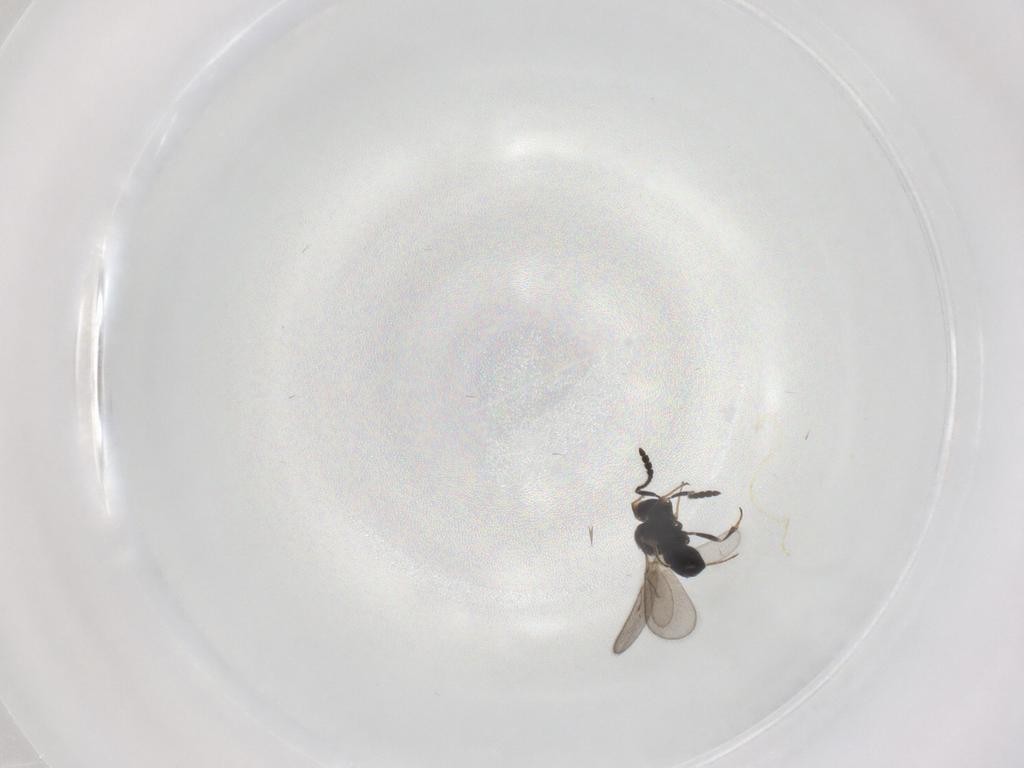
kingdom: Animalia
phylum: Arthropoda
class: Insecta
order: Hymenoptera
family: Scelionidae
